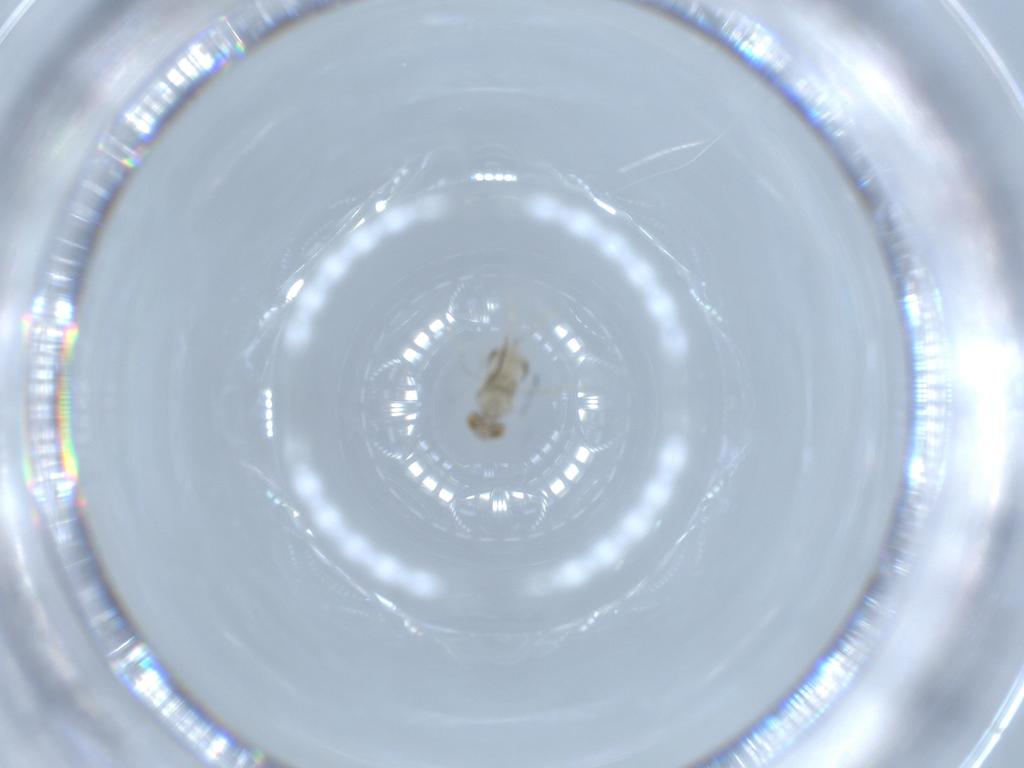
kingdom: Animalia
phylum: Arthropoda
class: Insecta
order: Hymenoptera
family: Aphelinidae
